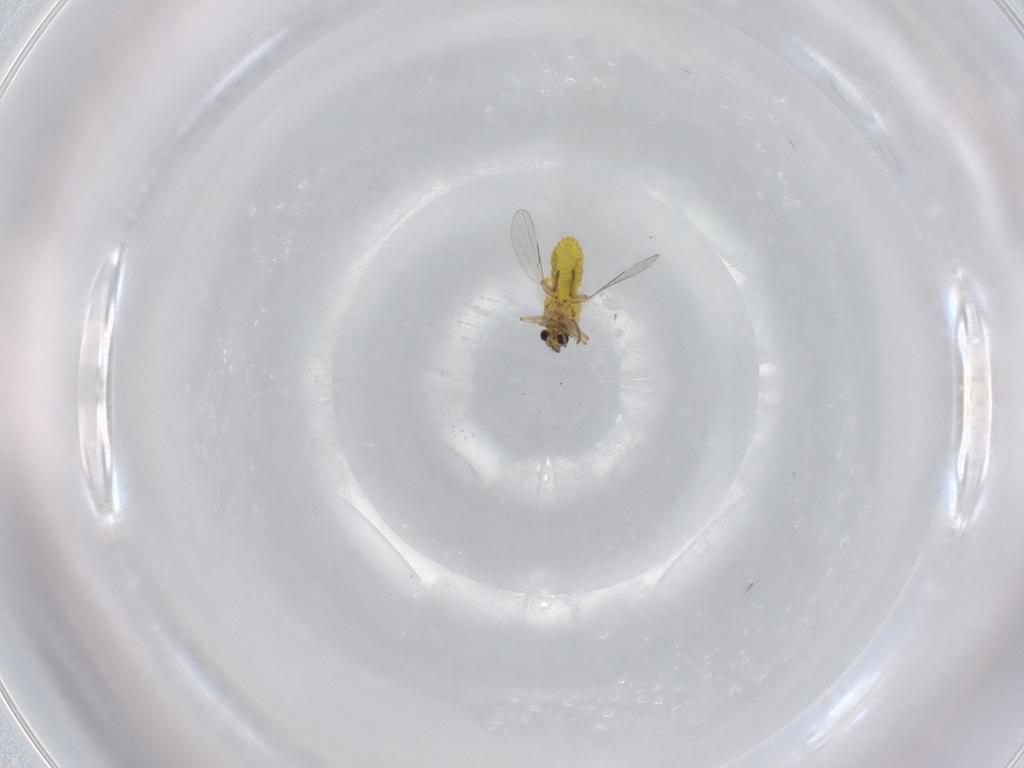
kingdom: Animalia
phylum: Arthropoda
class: Insecta
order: Diptera
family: Ceratopogonidae
